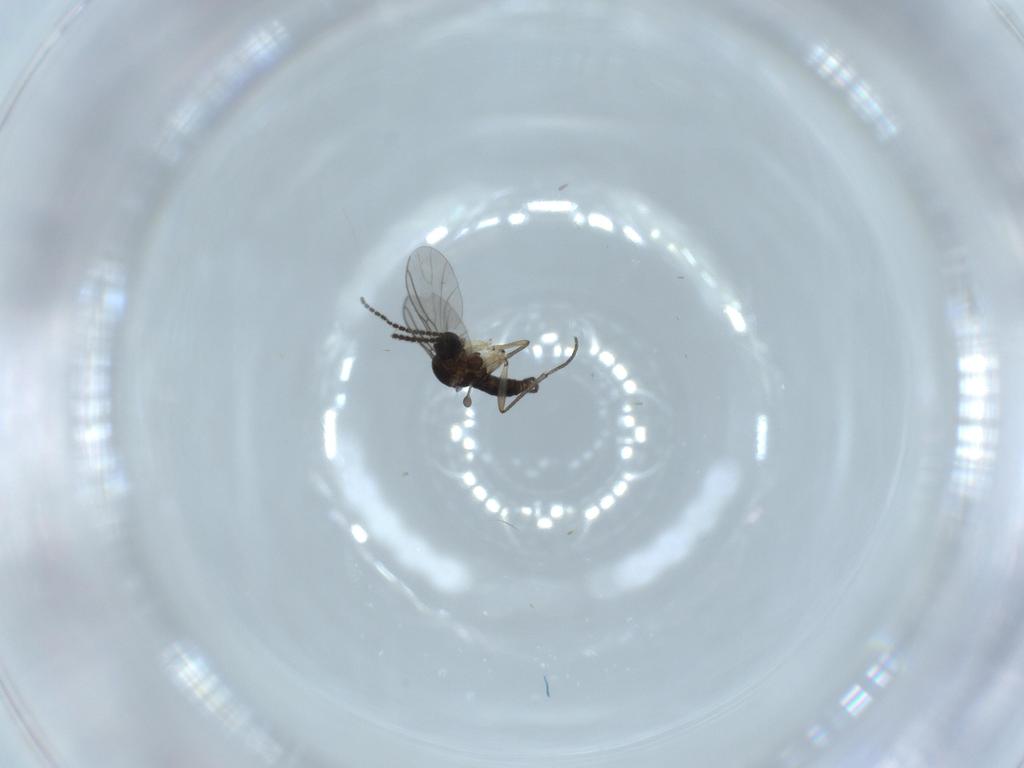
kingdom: Animalia
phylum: Arthropoda
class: Insecta
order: Diptera
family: Sciaridae
